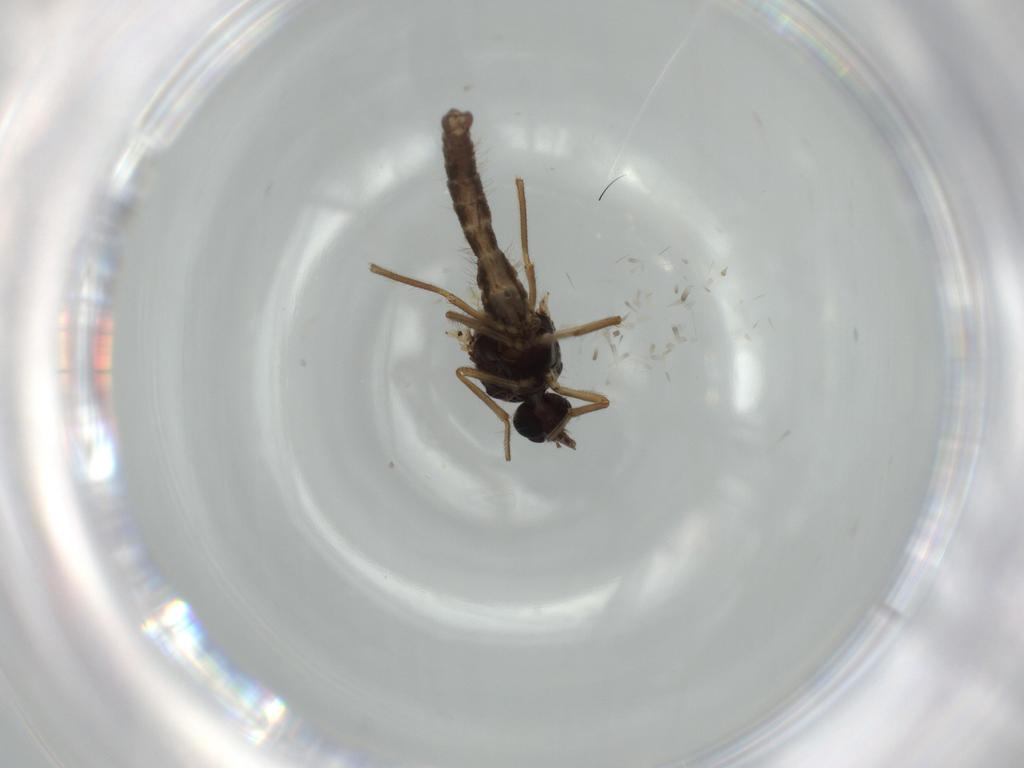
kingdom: Animalia
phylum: Arthropoda
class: Insecta
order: Diptera
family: Ceratopogonidae
